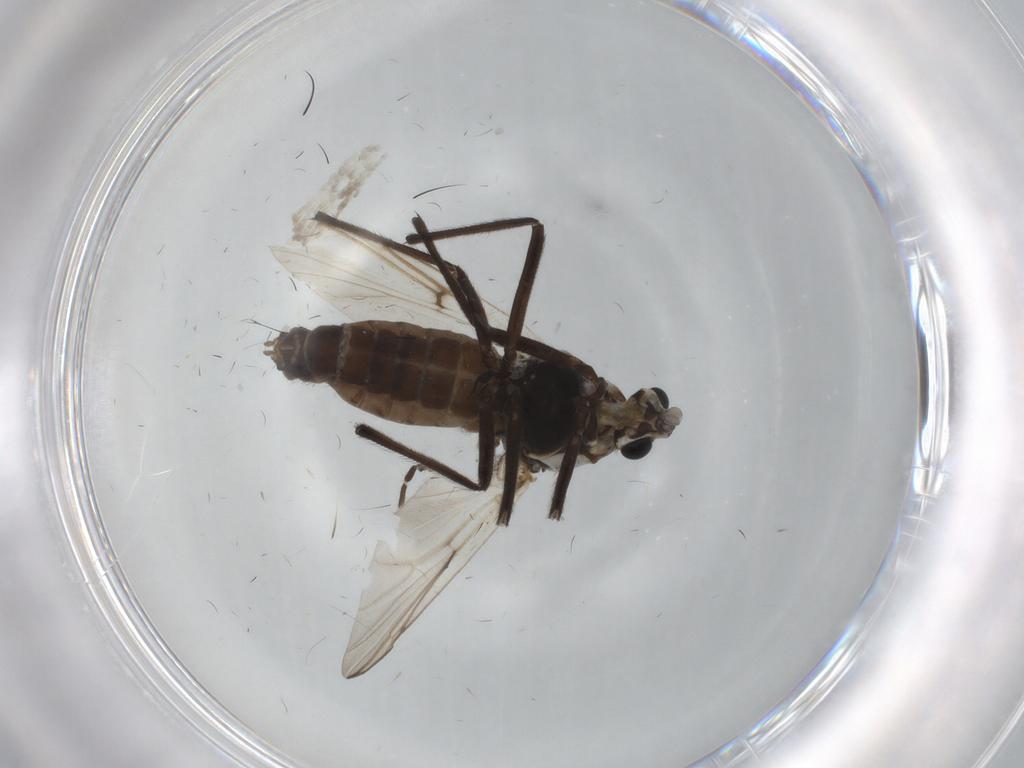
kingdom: Animalia
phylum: Arthropoda
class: Insecta
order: Diptera
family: Chironomidae
